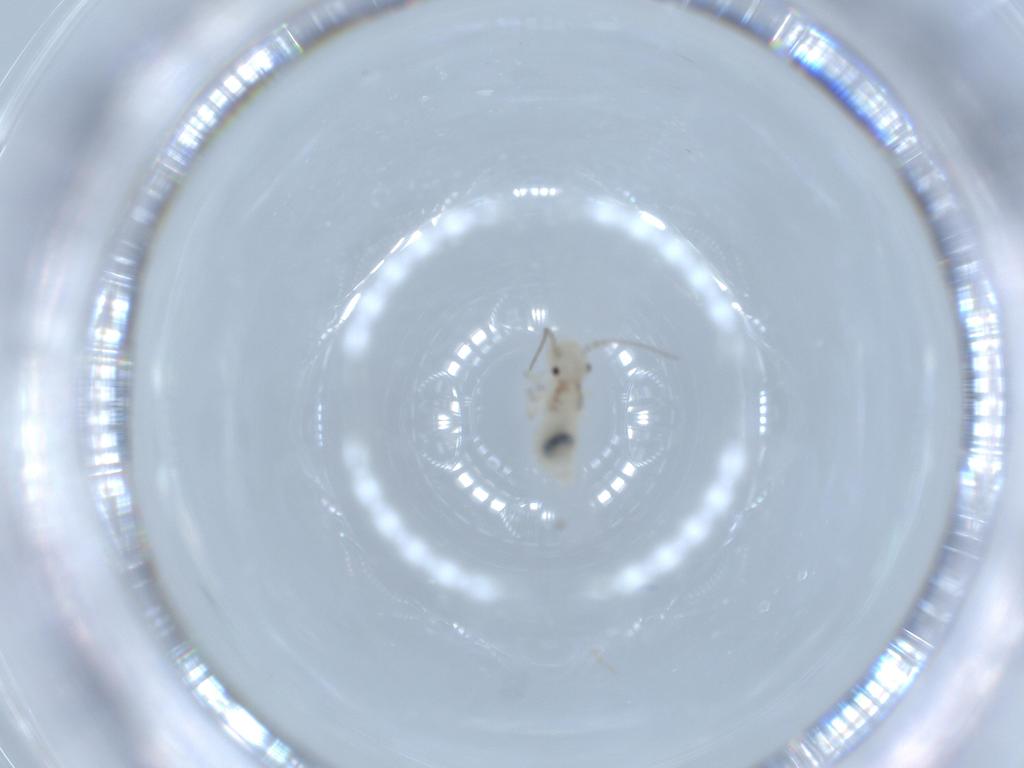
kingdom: Animalia
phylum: Arthropoda
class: Insecta
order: Psocodea
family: Caeciliusidae
